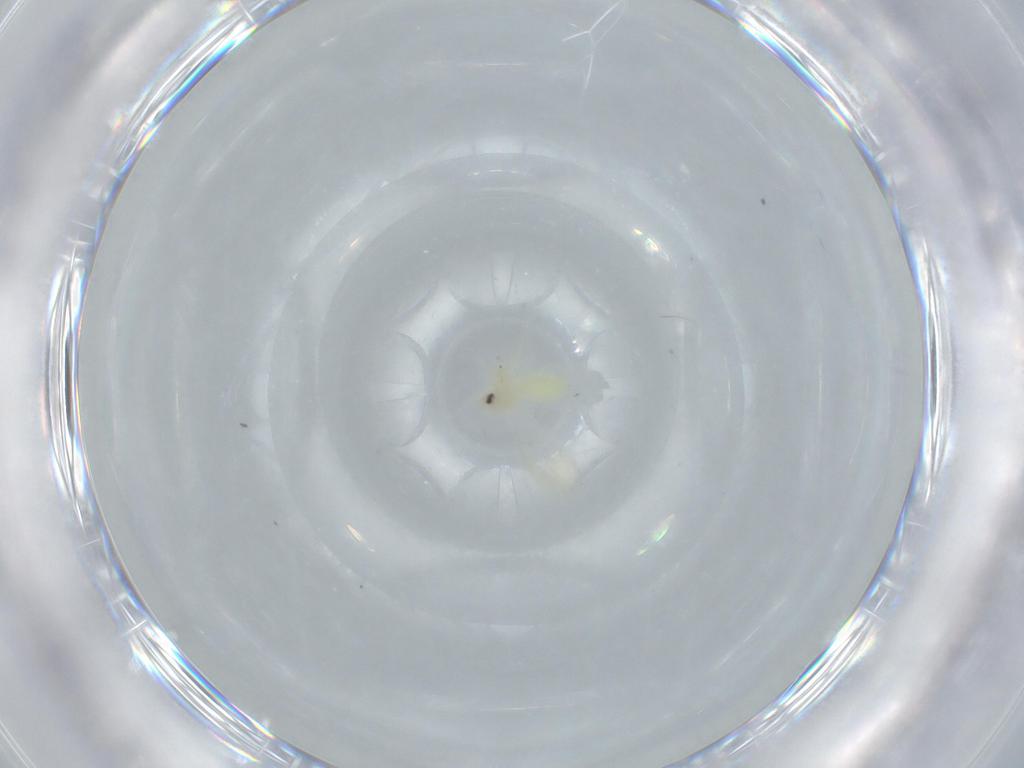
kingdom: Animalia
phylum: Arthropoda
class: Insecta
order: Hemiptera
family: Aleyrodidae
